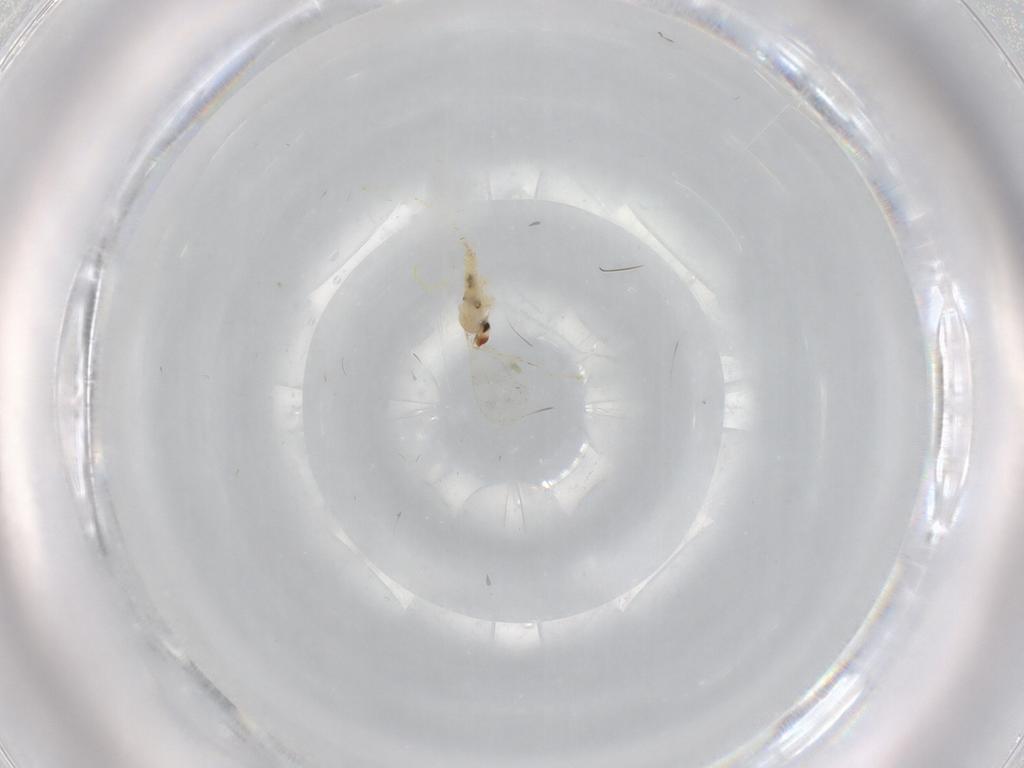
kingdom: Animalia
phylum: Arthropoda
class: Insecta
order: Diptera
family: Cecidomyiidae
